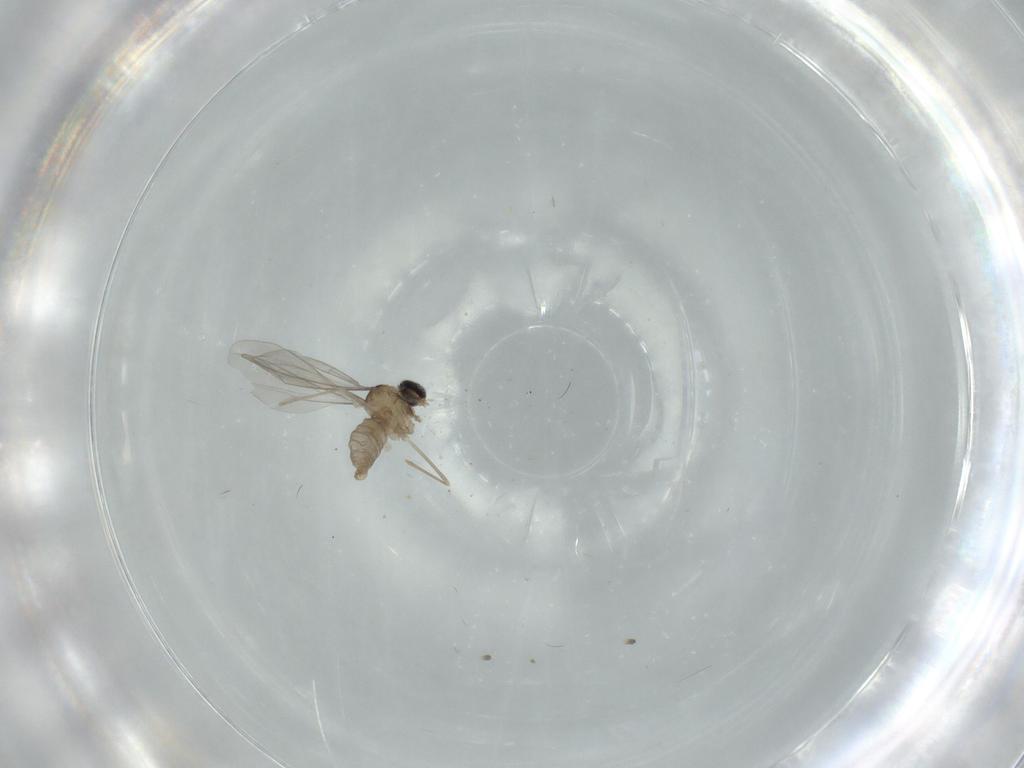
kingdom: Animalia
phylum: Arthropoda
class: Insecta
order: Diptera
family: Cecidomyiidae
